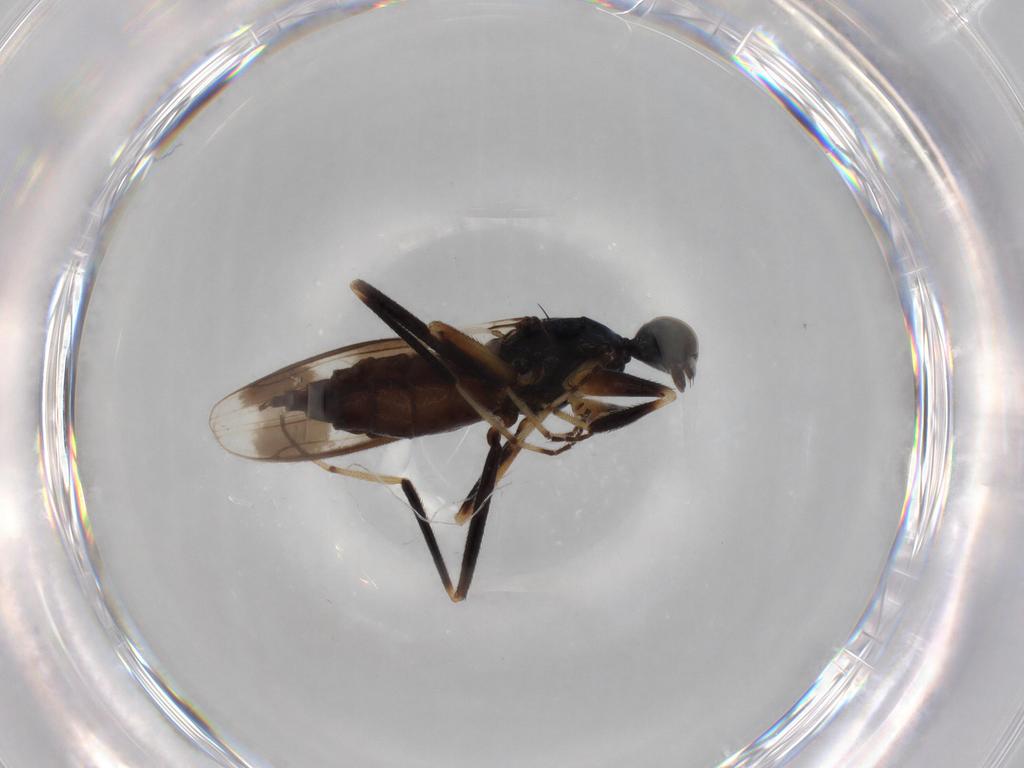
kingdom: Animalia
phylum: Arthropoda
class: Insecta
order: Diptera
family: Hybotidae
